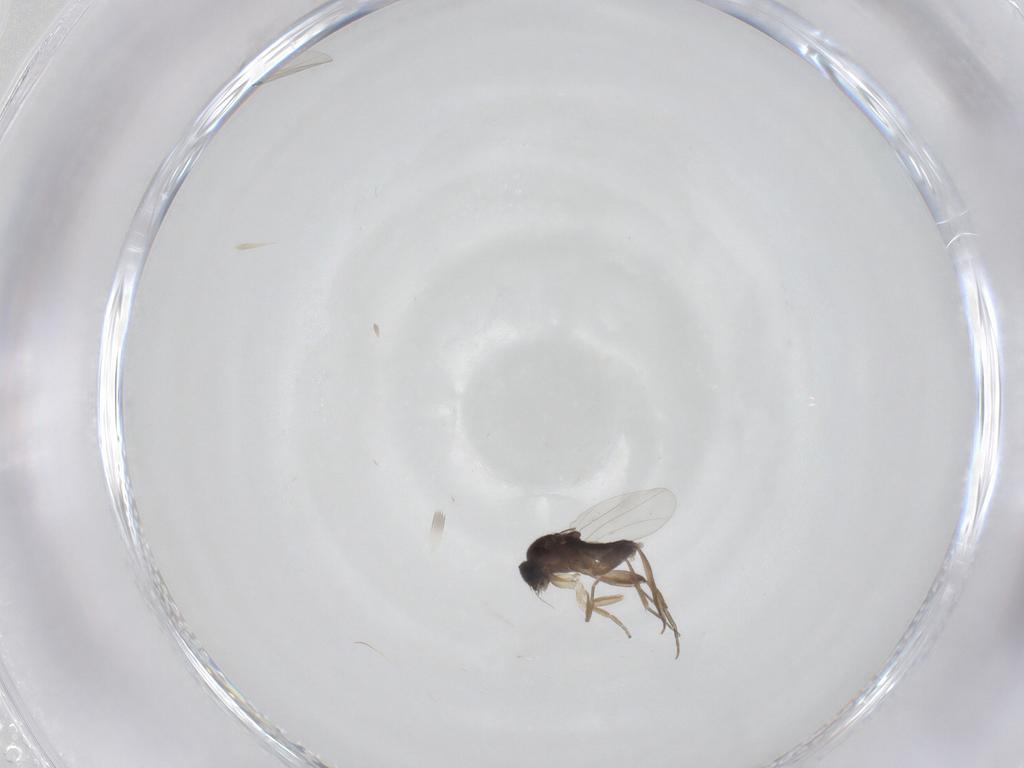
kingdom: Animalia
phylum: Arthropoda
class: Insecta
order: Diptera
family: Phoridae
